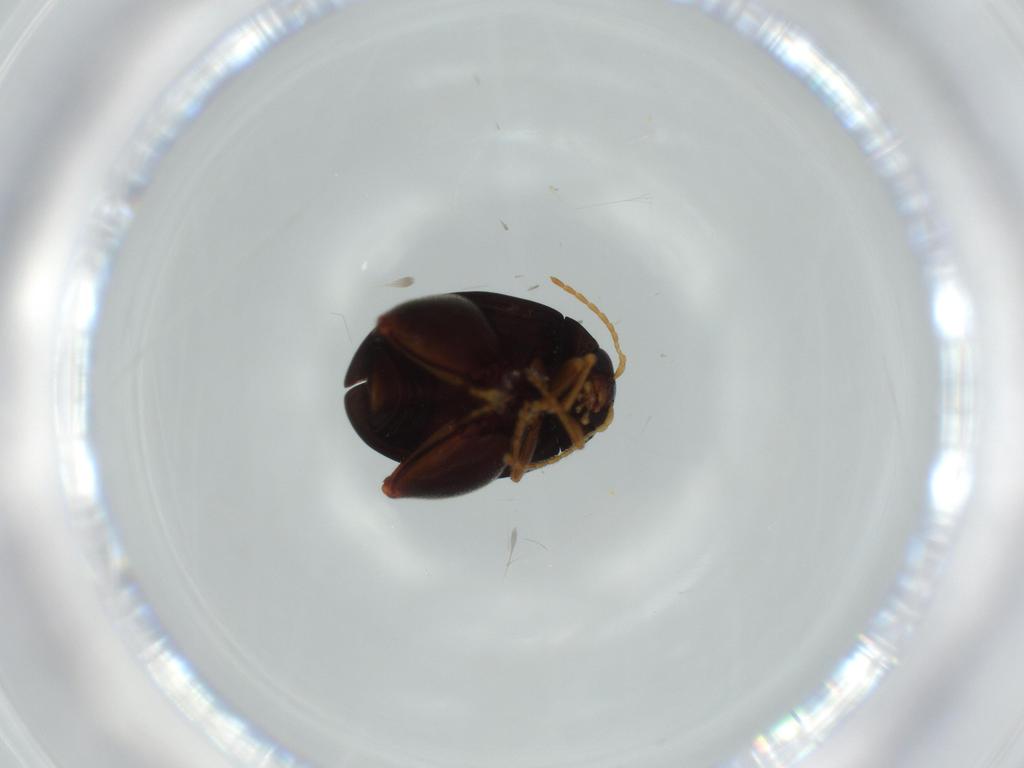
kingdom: Animalia
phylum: Arthropoda
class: Insecta
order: Coleoptera
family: Chrysomelidae
